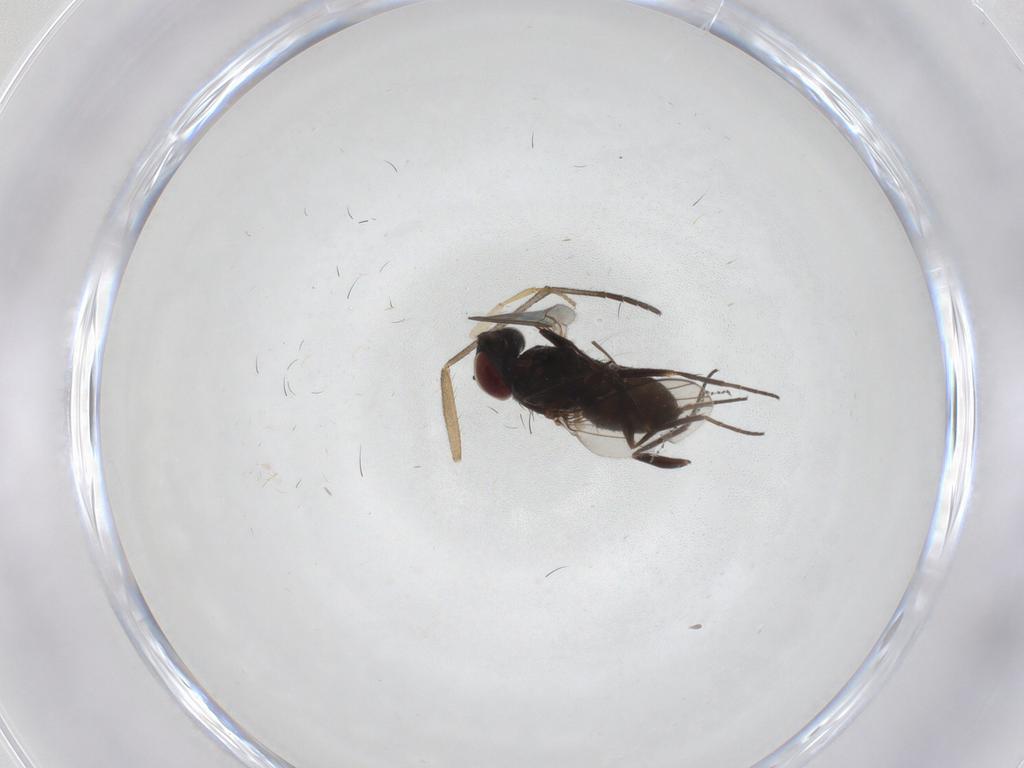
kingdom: Animalia
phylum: Arthropoda
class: Insecta
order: Diptera
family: Dolichopodidae
